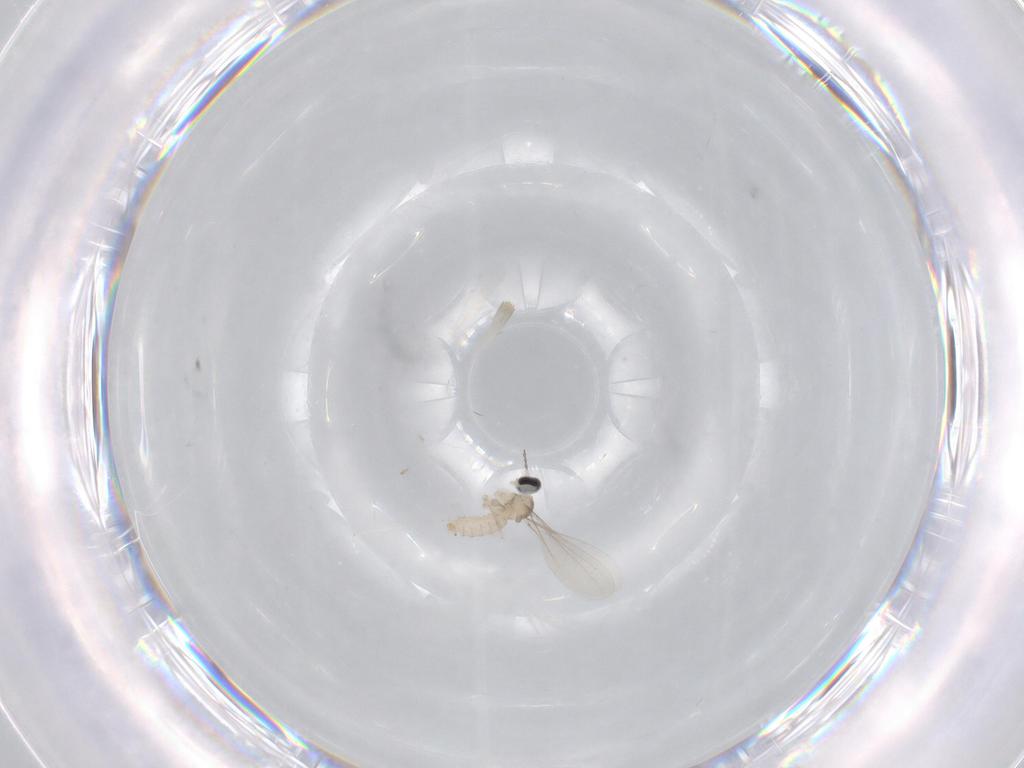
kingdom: Animalia
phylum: Arthropoda
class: Insecta
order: Diptera
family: Cecidomyiidae
